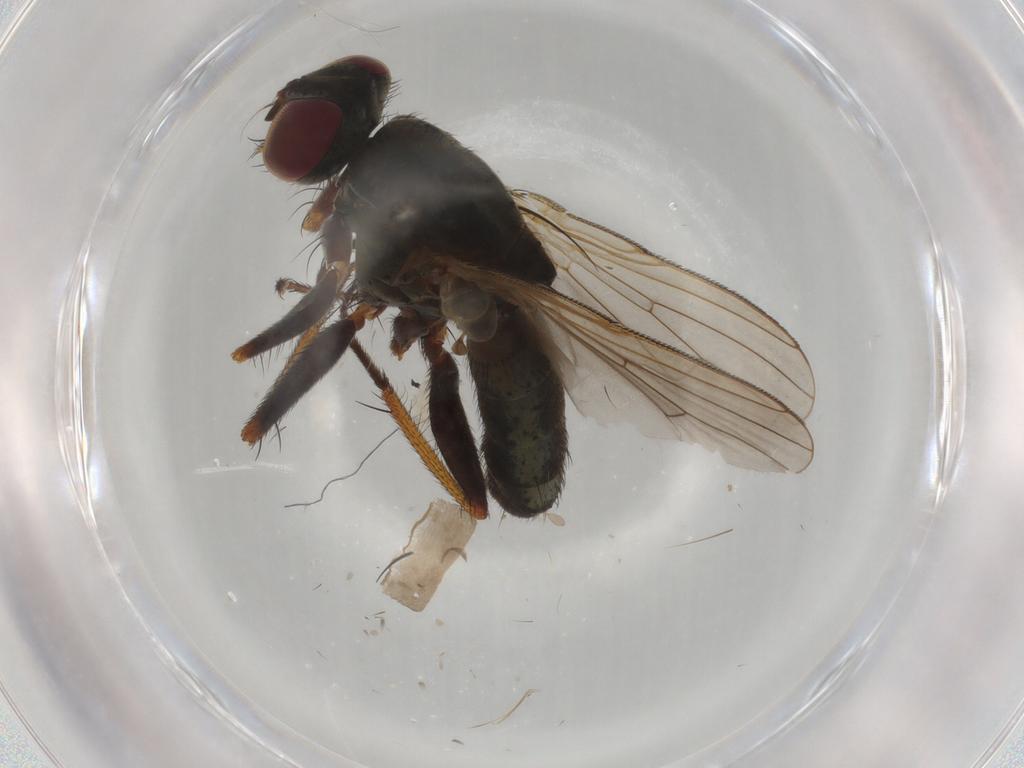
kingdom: Animalia
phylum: Arthropoda
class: Insecta
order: Diptera
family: Muscidae
